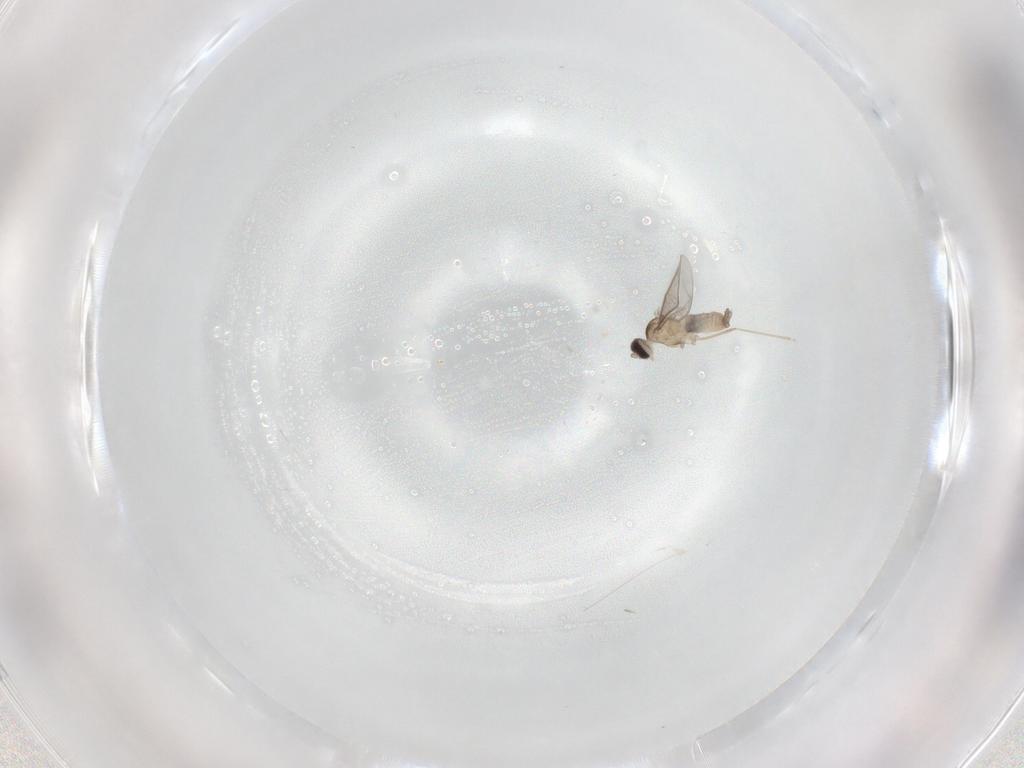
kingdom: Animalia
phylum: Arthropoda
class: Insecta
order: Diptera
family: Cecidomyiidae
